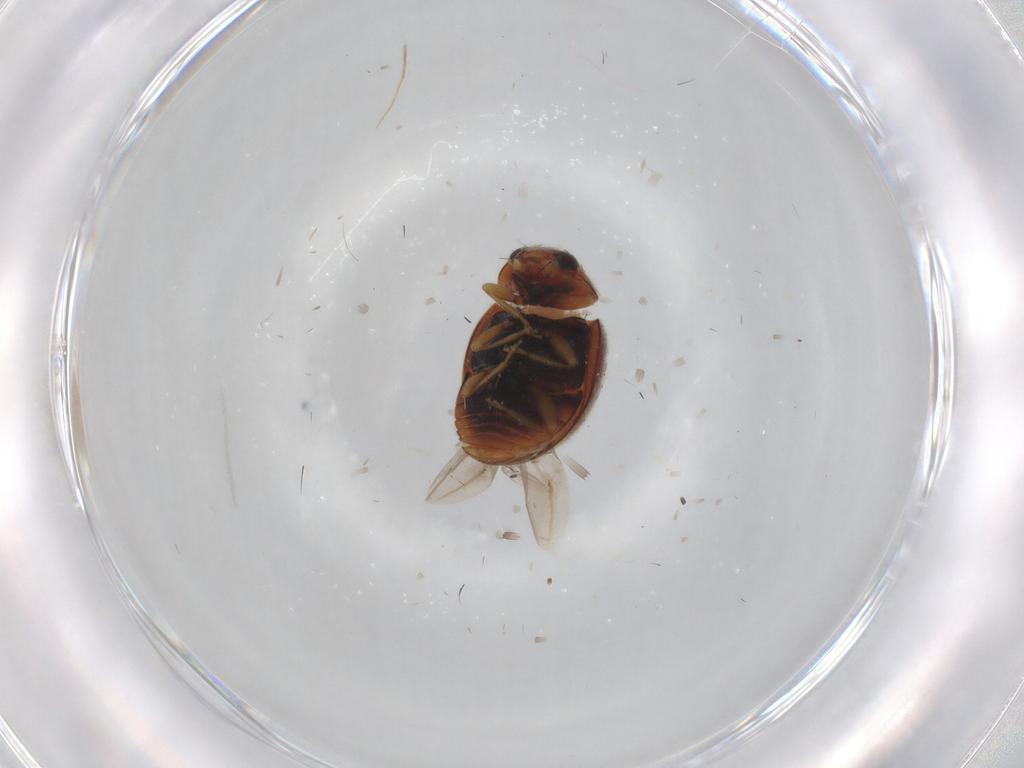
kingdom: Animalia
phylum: Arthropoda
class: Insecta
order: Coleoptera
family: Coccinellidae
